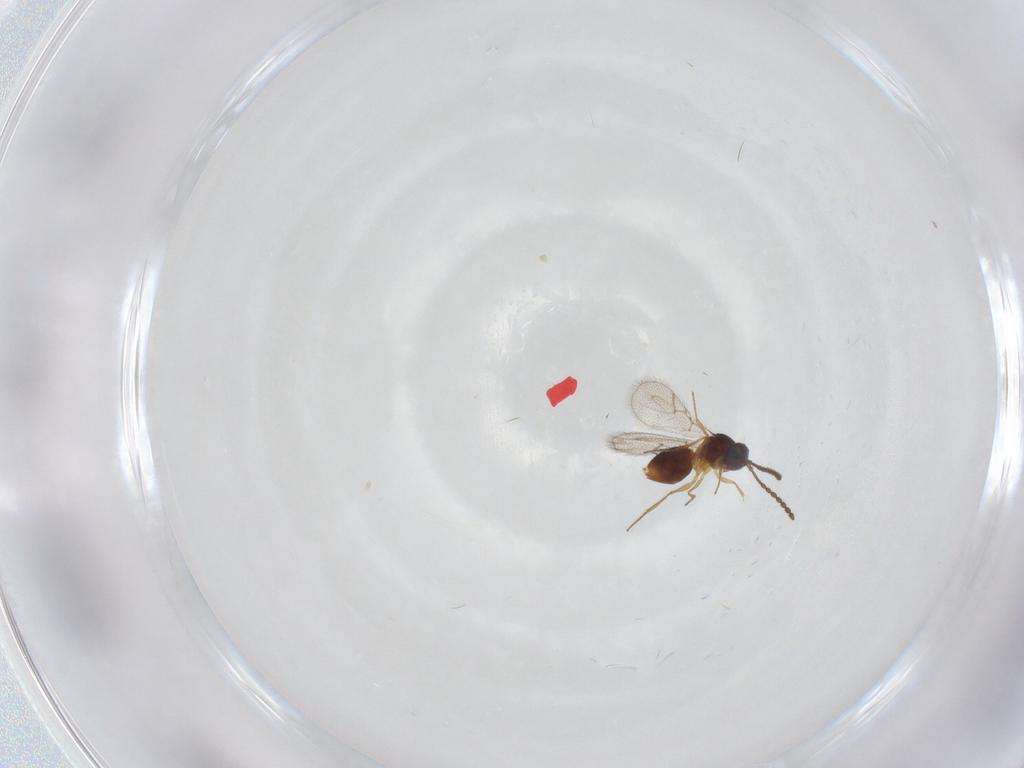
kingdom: Animalia
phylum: Arthropoda
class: Insecta
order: Hymenoptera
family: Figitidae
